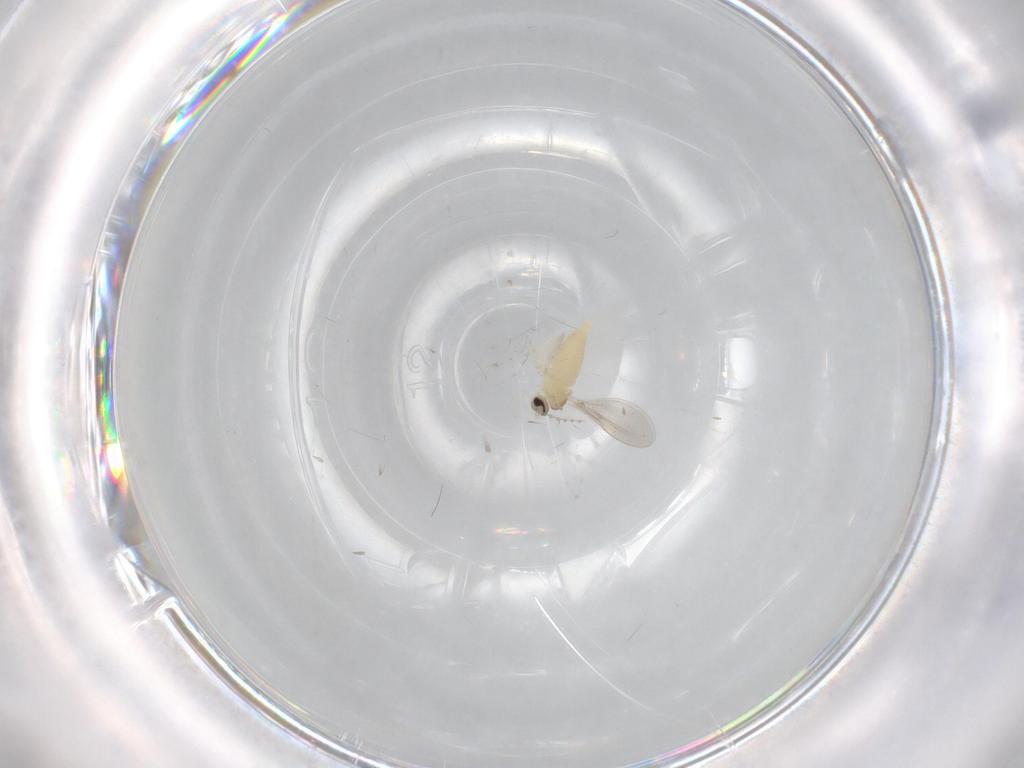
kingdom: Animalia
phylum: Arthropoda
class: Insecta
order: Diptera
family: Cecidomyiidae
